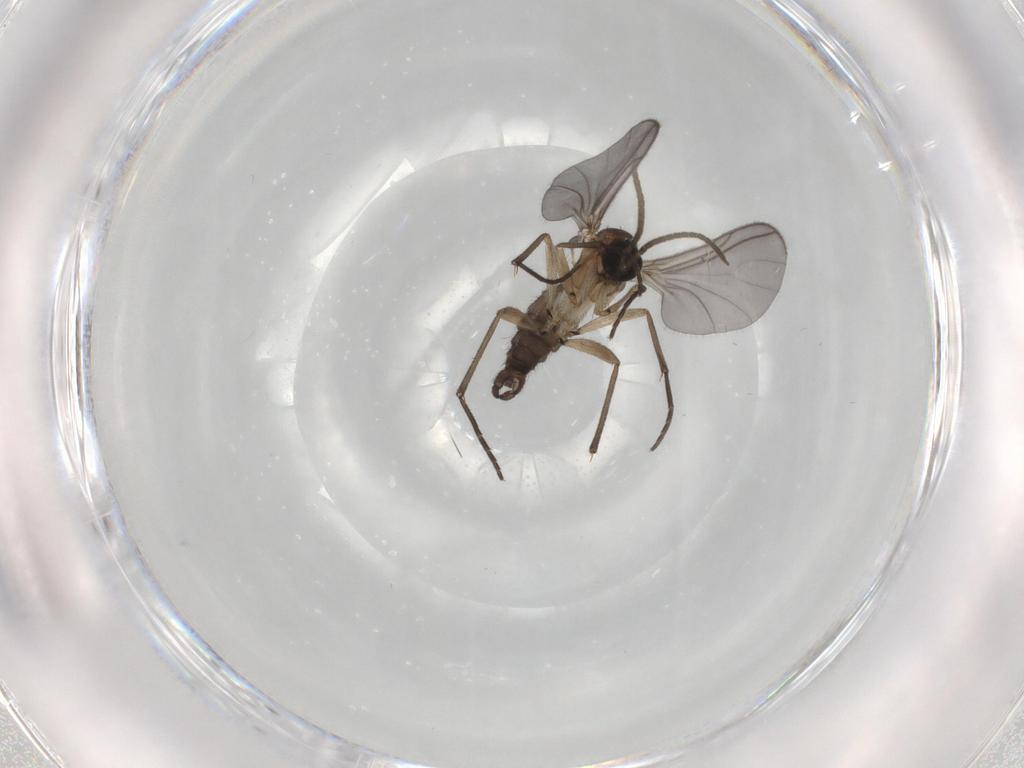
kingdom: Animalia
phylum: Arthropoda
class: Insecta
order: Diptera
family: Sciaridae
